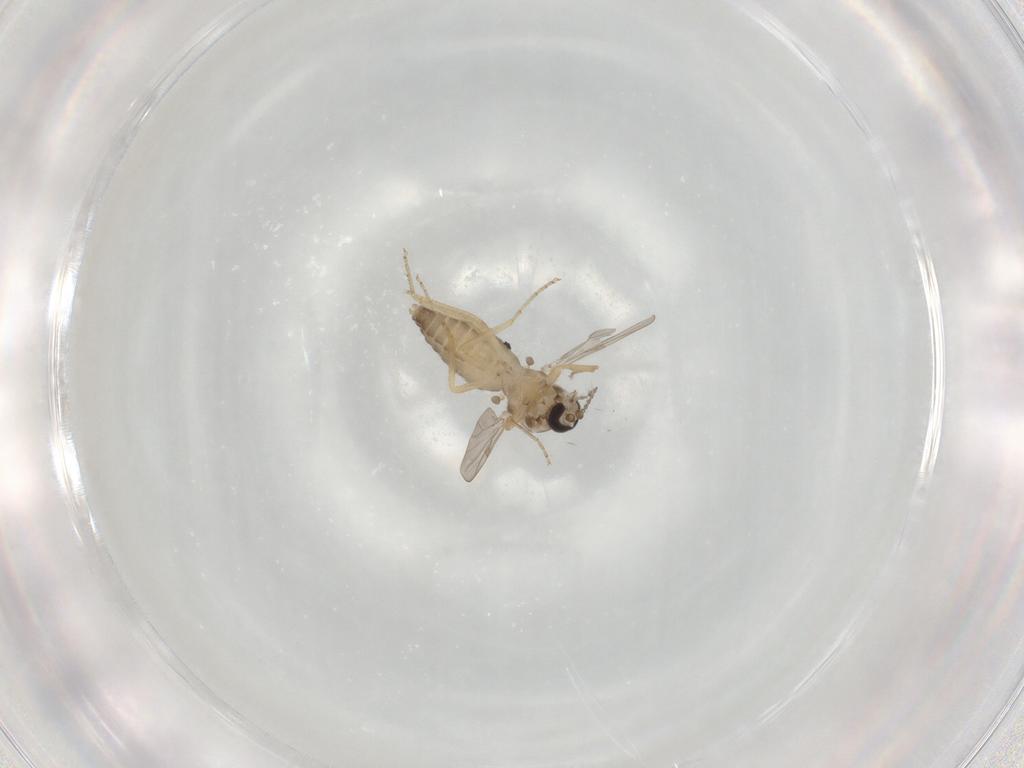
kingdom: Animalia
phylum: Arthropoda
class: Insecta
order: Diptera
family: Ceratopogonidae
